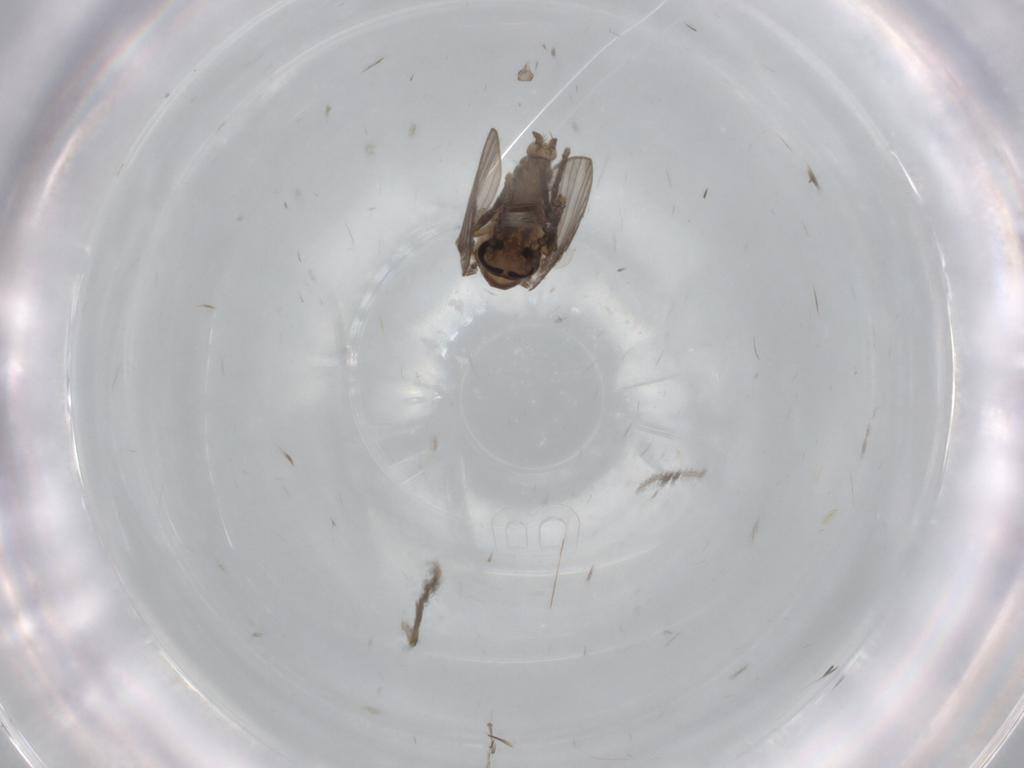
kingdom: Animalia
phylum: Arthropoda
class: Insecta
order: Diptera
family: Psychodidae
